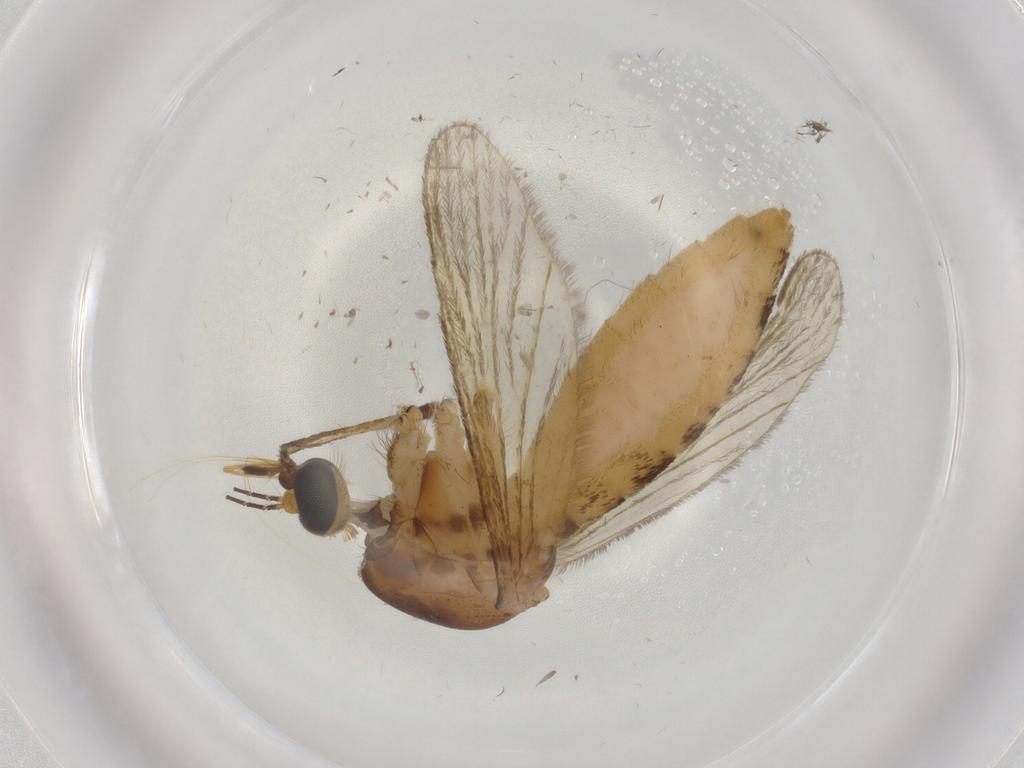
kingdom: Animalia
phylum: Arthropoda
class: Insecta
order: Diptera
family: Culicidae
